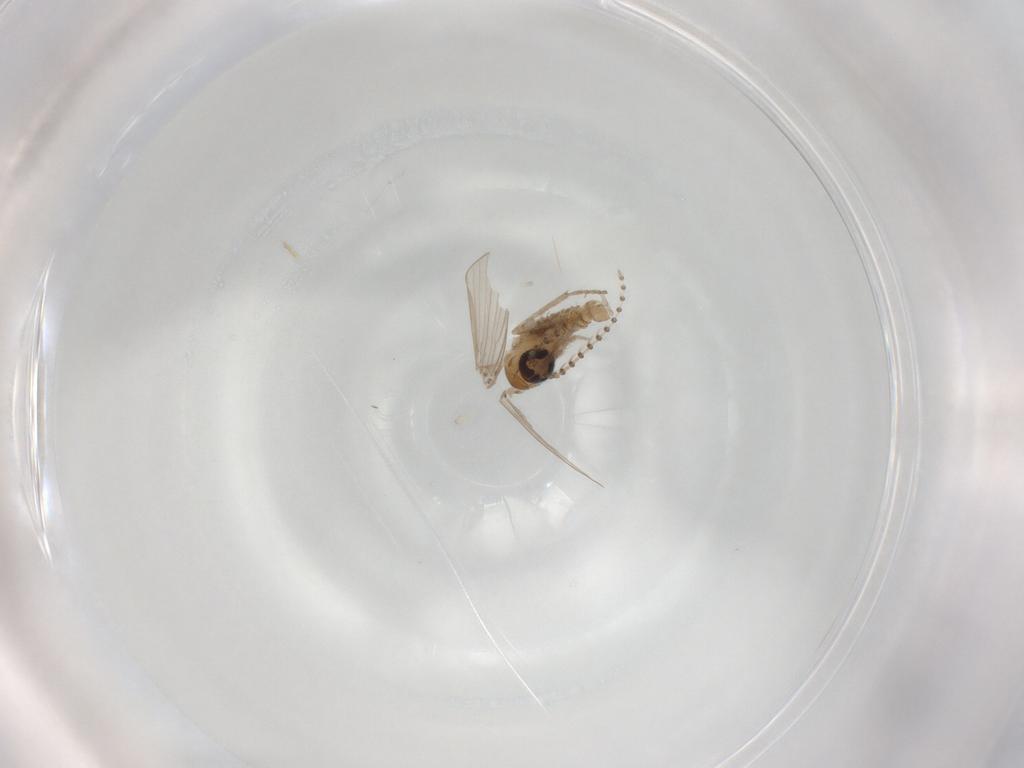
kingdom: Animalia
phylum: Arthropoda
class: Insecta
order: Diptera
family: Psychodidae
